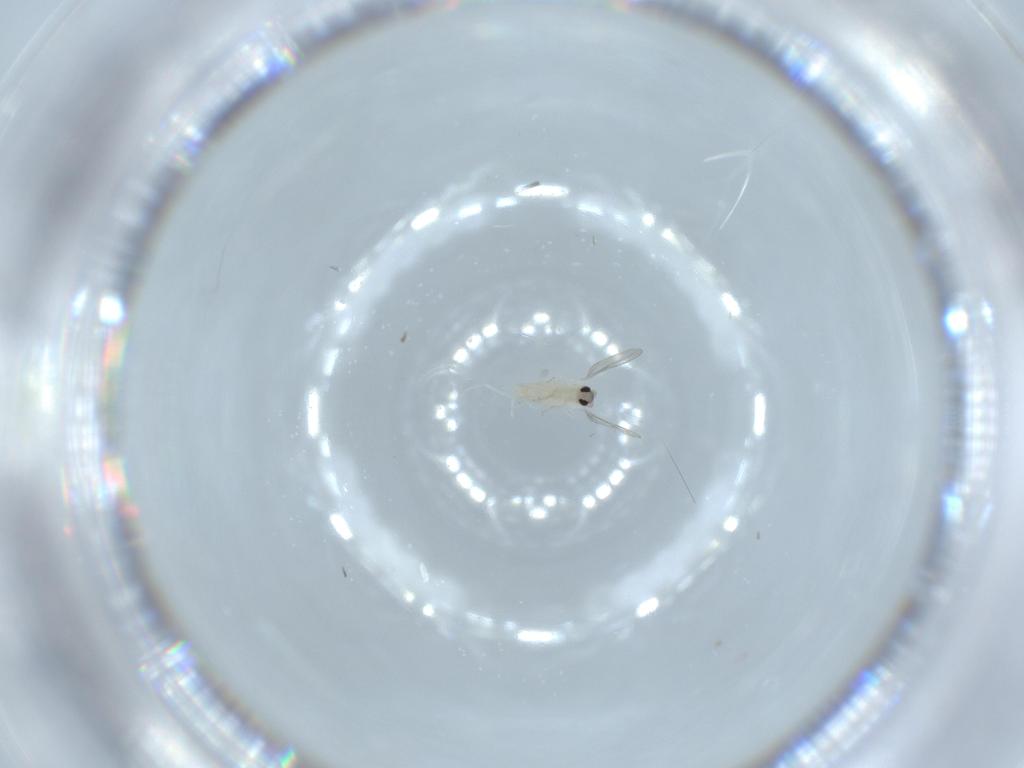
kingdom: Animalia
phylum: Arthropoda
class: Insecta
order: Diptera
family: Cecidomyiidae
